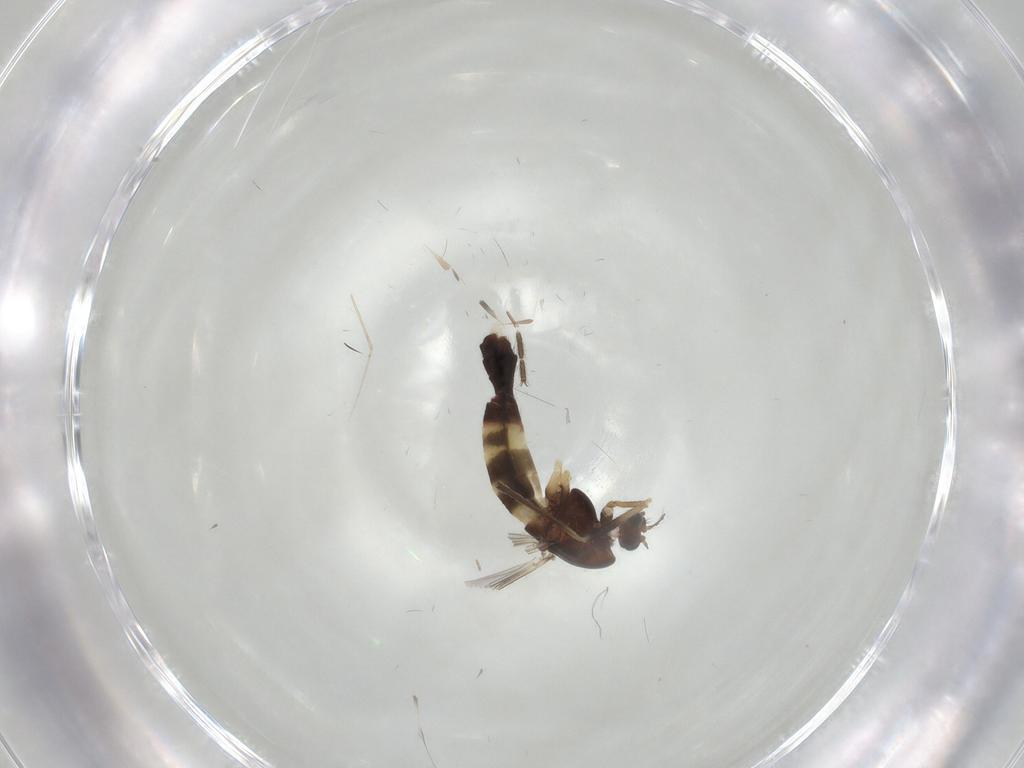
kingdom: Animalia
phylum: Arthropoda
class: Insecta
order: Diptera
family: Limoniidae
